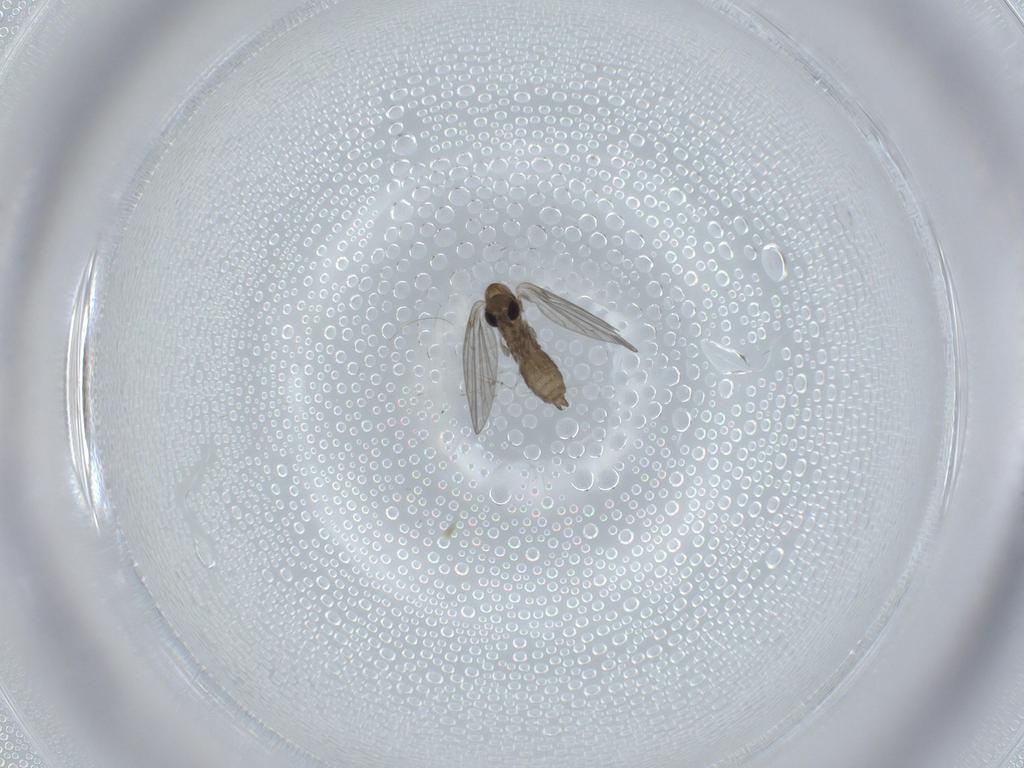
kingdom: Animalia
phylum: Arthropoda
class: Insecta
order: Diptera
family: Psychodidae
